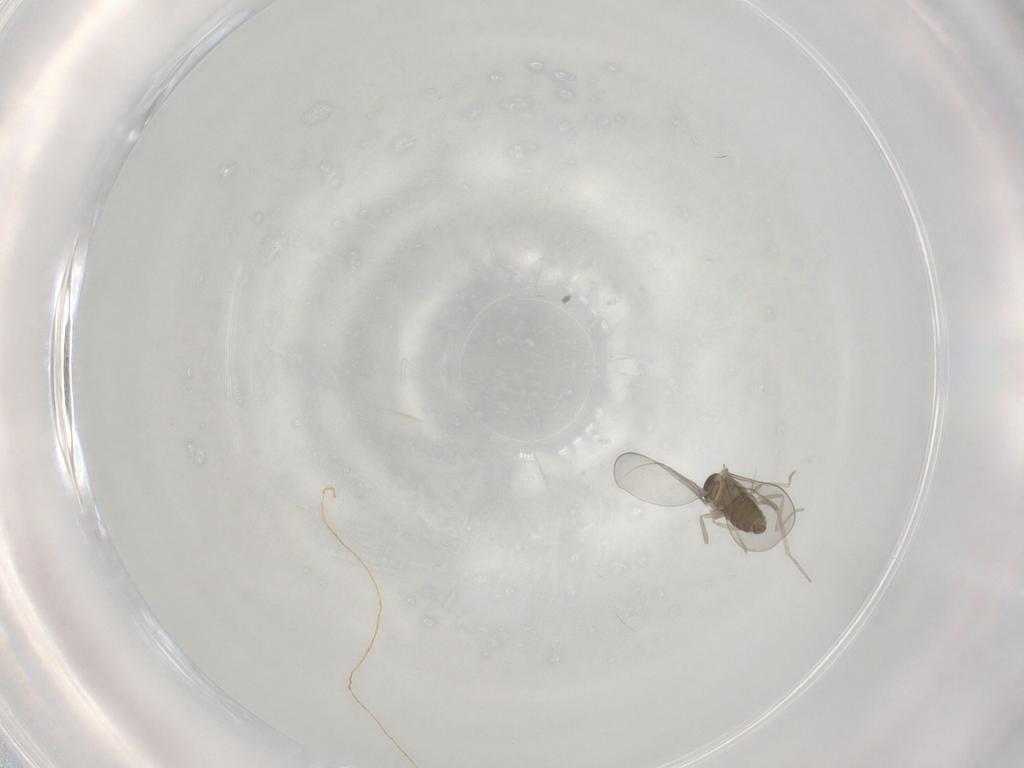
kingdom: Animalia
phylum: Arthropoda
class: Insecta
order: Diptera
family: Cecidomyiidae
